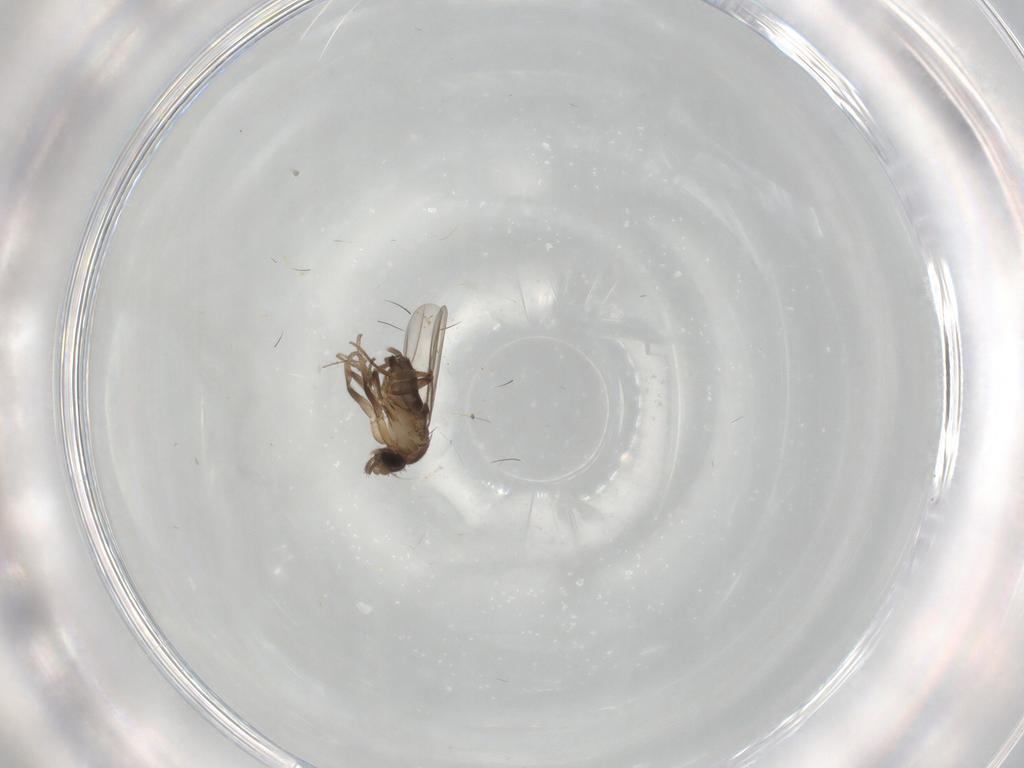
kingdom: Animalia
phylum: Arthropoda
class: Insecta
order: Diptera
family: Phoridae
